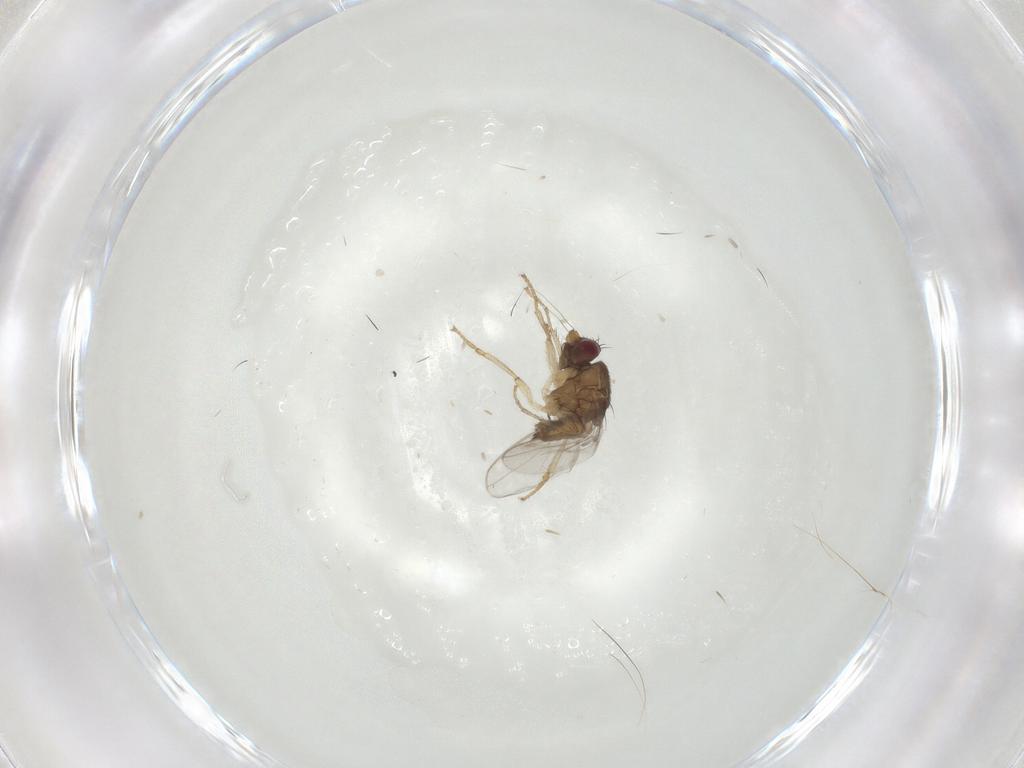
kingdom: Animalia
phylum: Arthropoda
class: Insecta
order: Diptera
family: Sphaeroceridae
